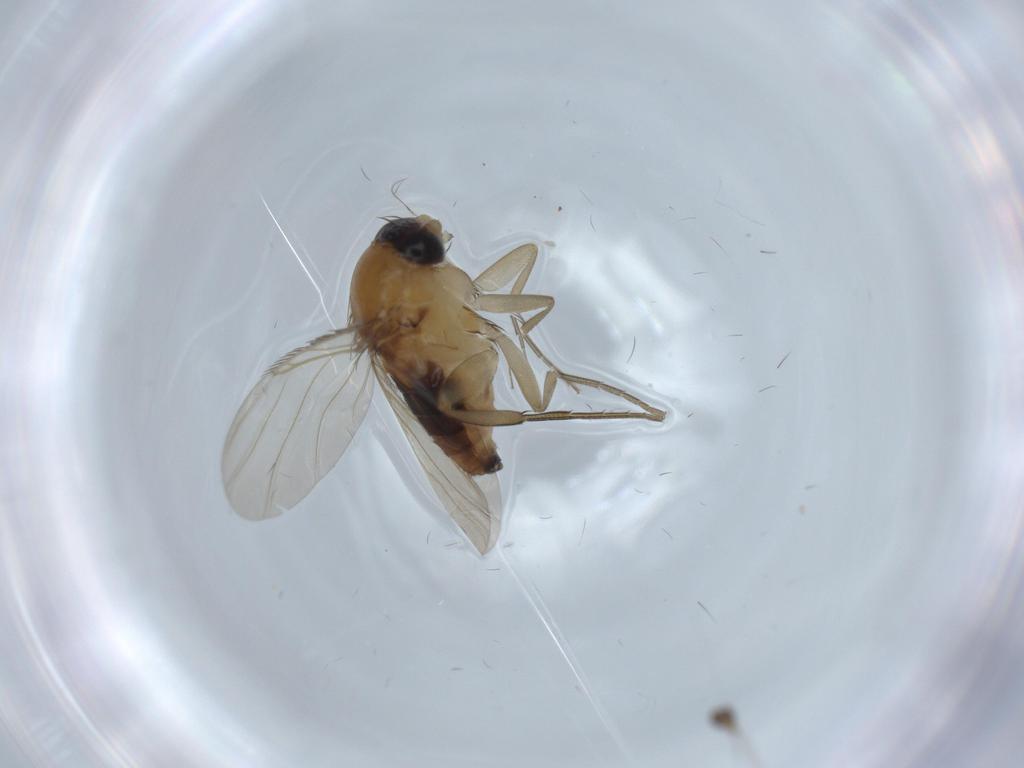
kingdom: Animalia
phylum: Arthropoda
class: Insecta
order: Diptera
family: Phoridae
